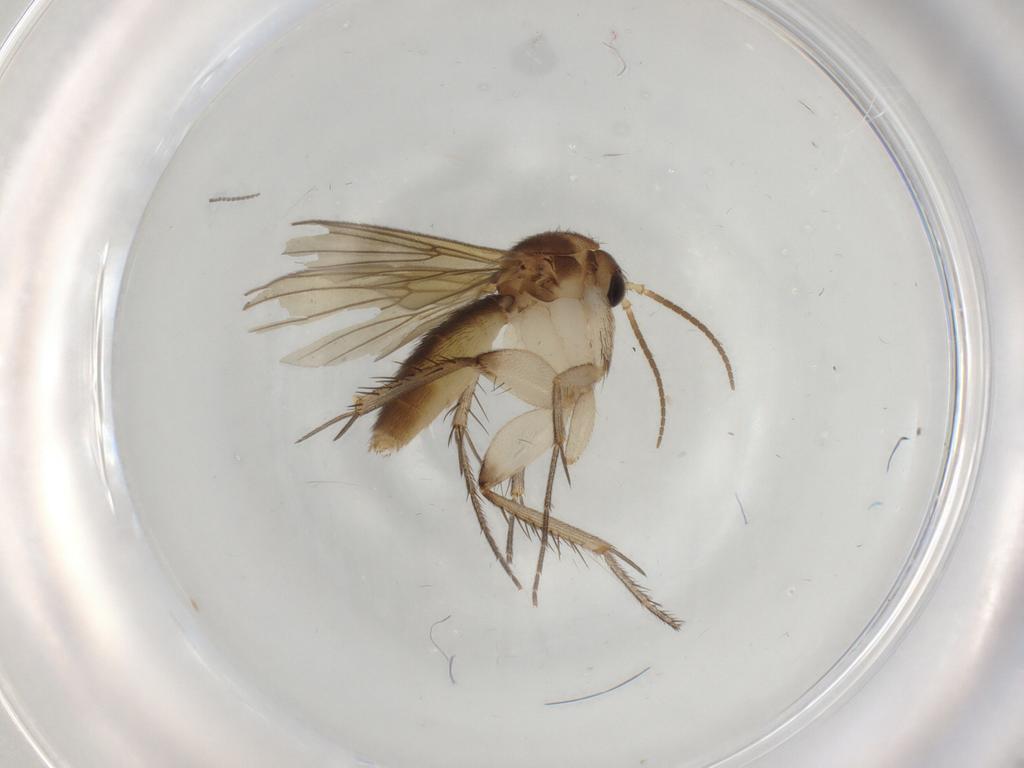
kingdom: Animalia
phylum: Arthropoda
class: Insecta
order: Diptera
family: Mycetophilidae
